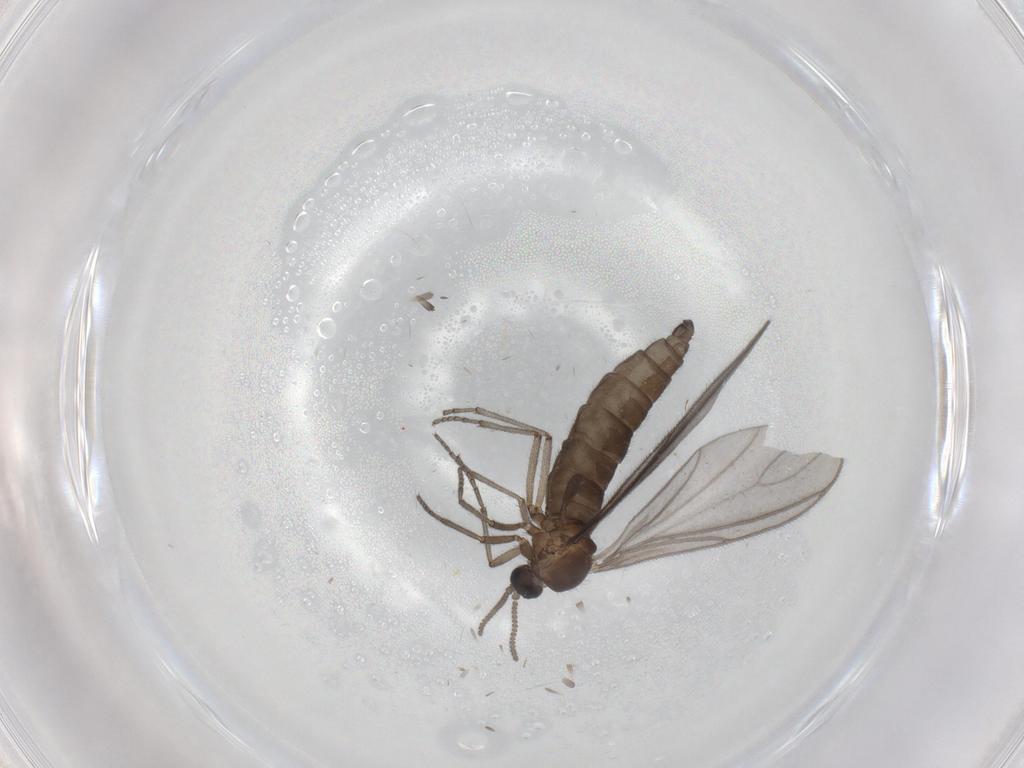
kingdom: Animalia
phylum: Arthropoda
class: Insecta
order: Diptera
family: Sciaridae
